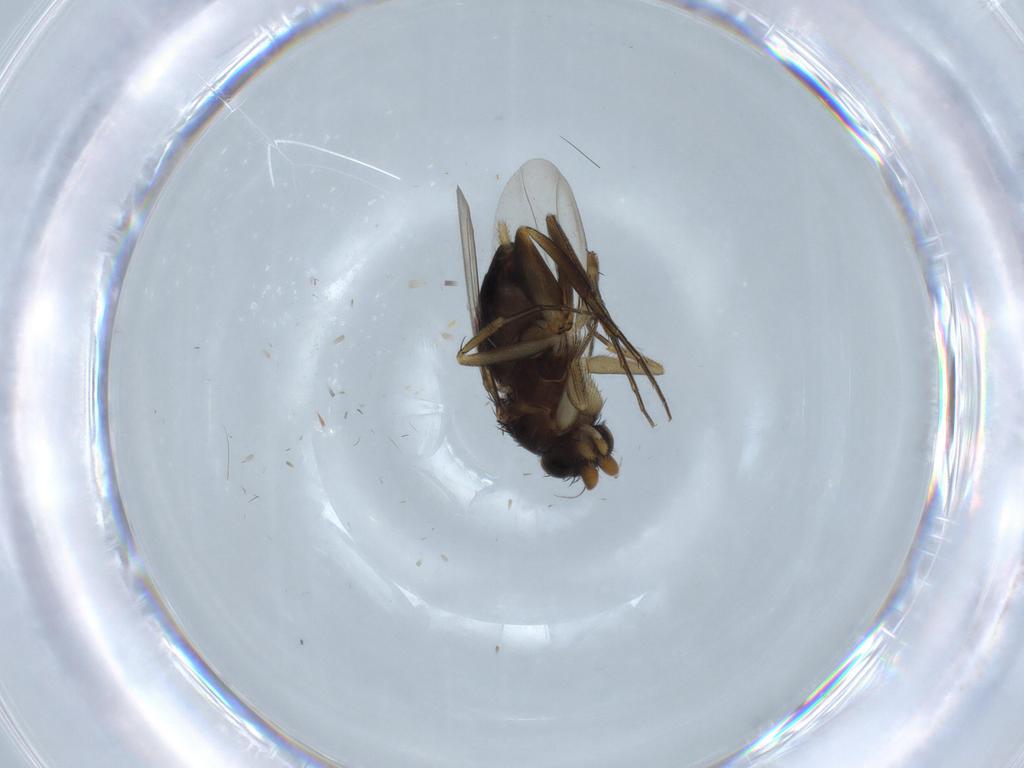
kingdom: Animalia
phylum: Arthropoda
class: Insecta
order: Diptera
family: Phoridae
